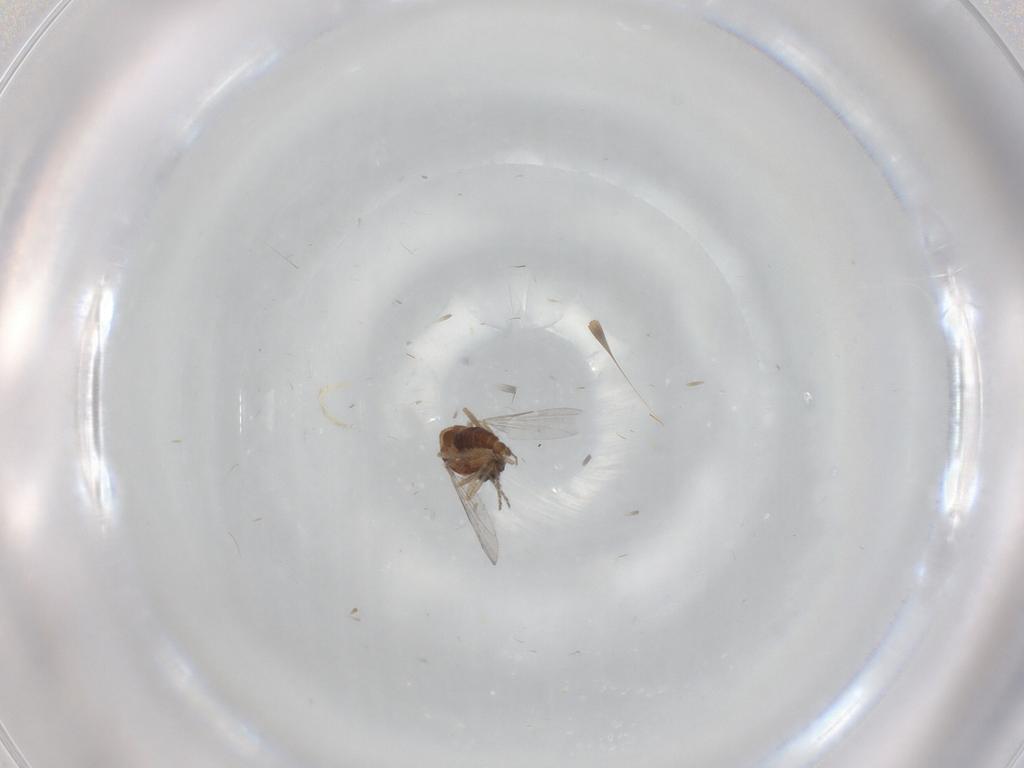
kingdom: Animalia
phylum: Arthropoda
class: Insecta
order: Diptera
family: Ceratopogonidae
